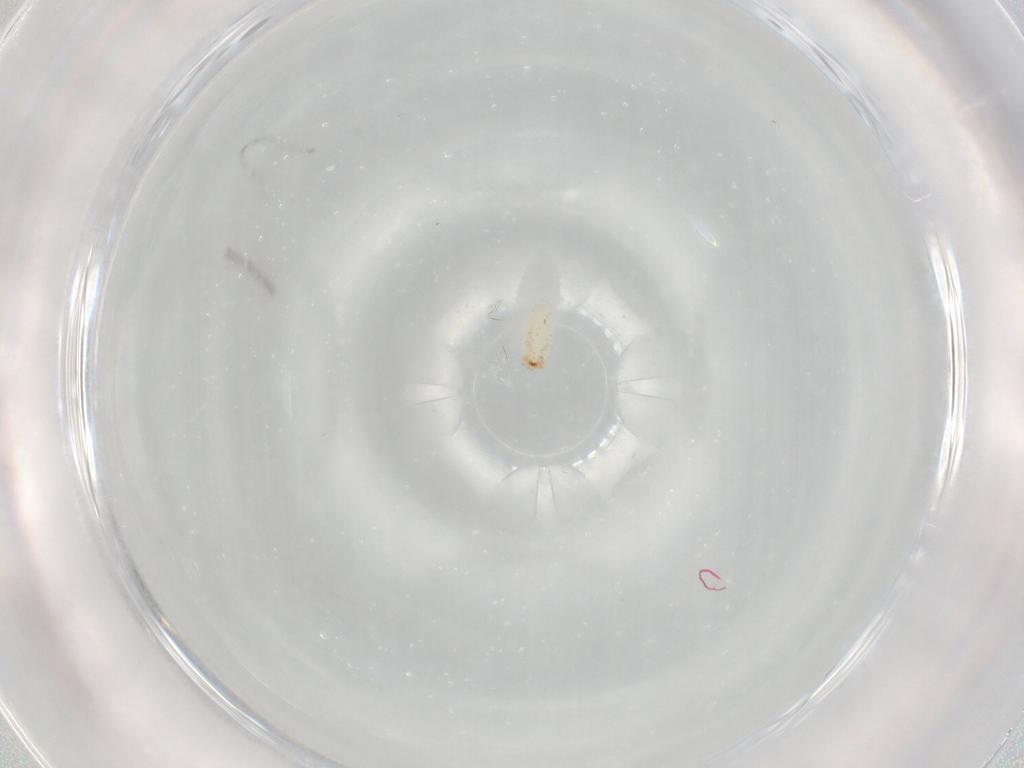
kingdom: Animalia
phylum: Arthropoda
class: Insecta
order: Coleoptera
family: Chrysomelidae
